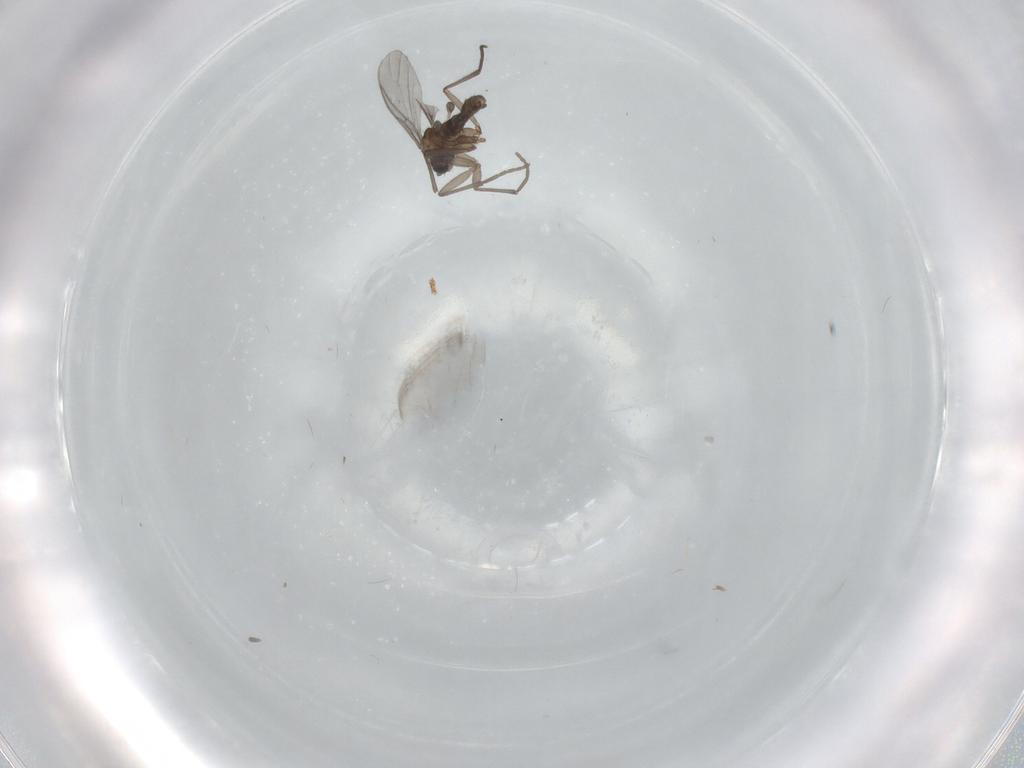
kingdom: Animalia
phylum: Arthropoda
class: Insecta
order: Diptera
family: Sciaridae
